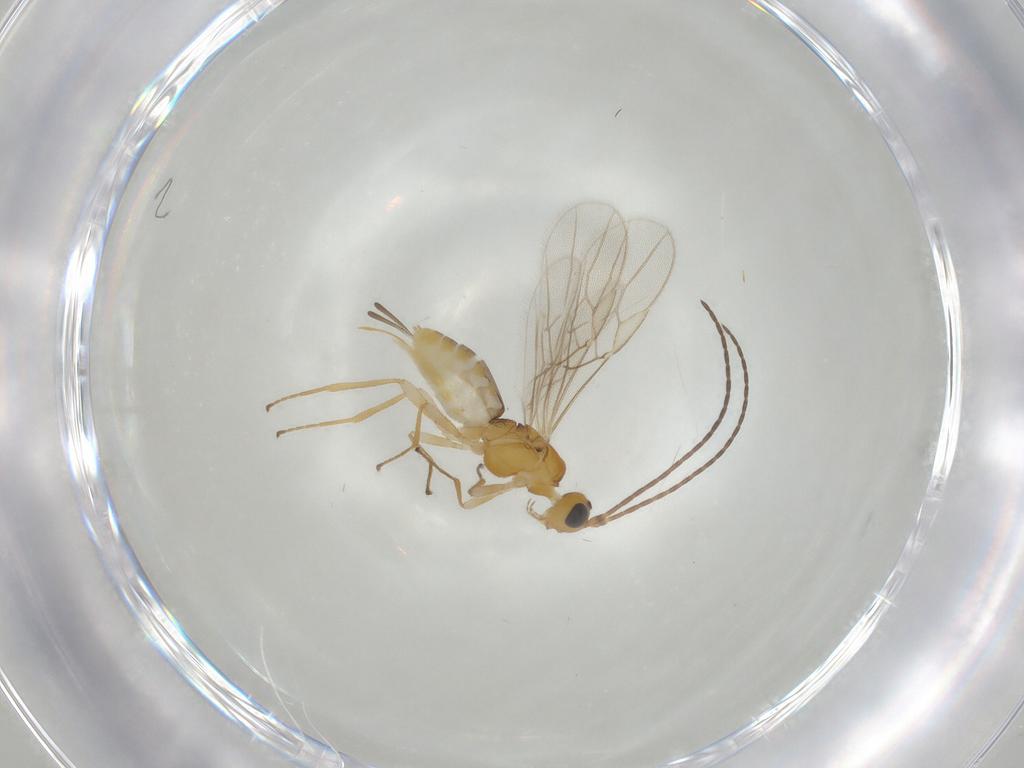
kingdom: Animalia
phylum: Arthropoda
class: Insecta
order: Hymenoptera
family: Braconidae
